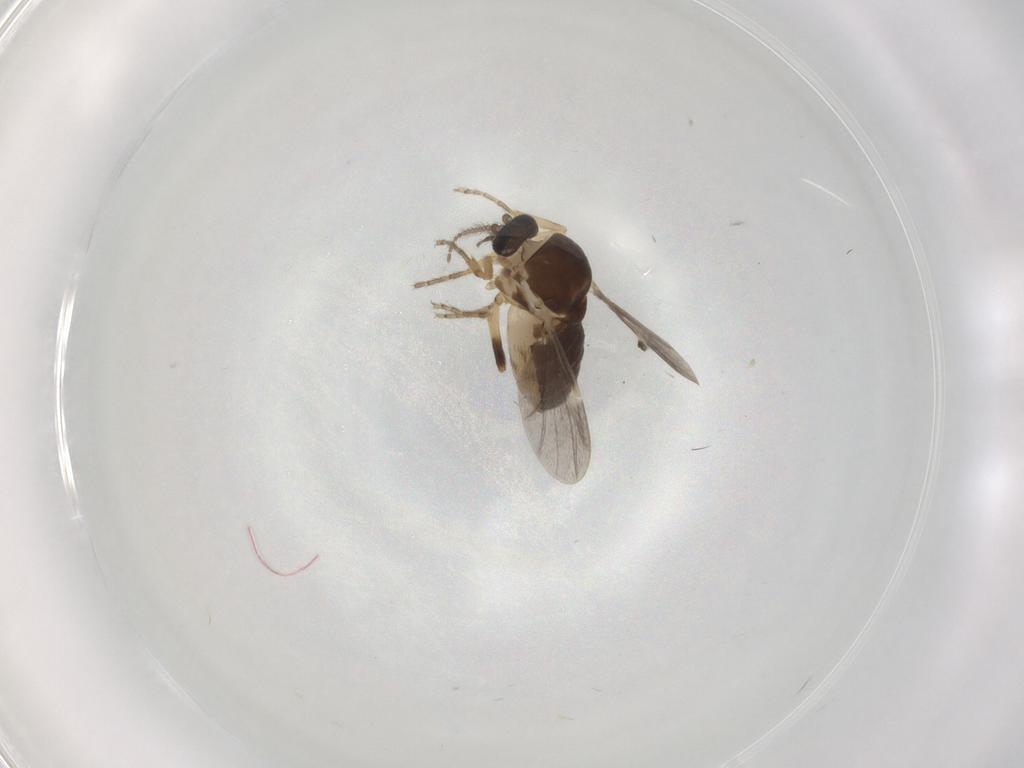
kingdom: Animalia
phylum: Arthropoda
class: Insecta
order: Diptera
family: Ceratopogonidae
